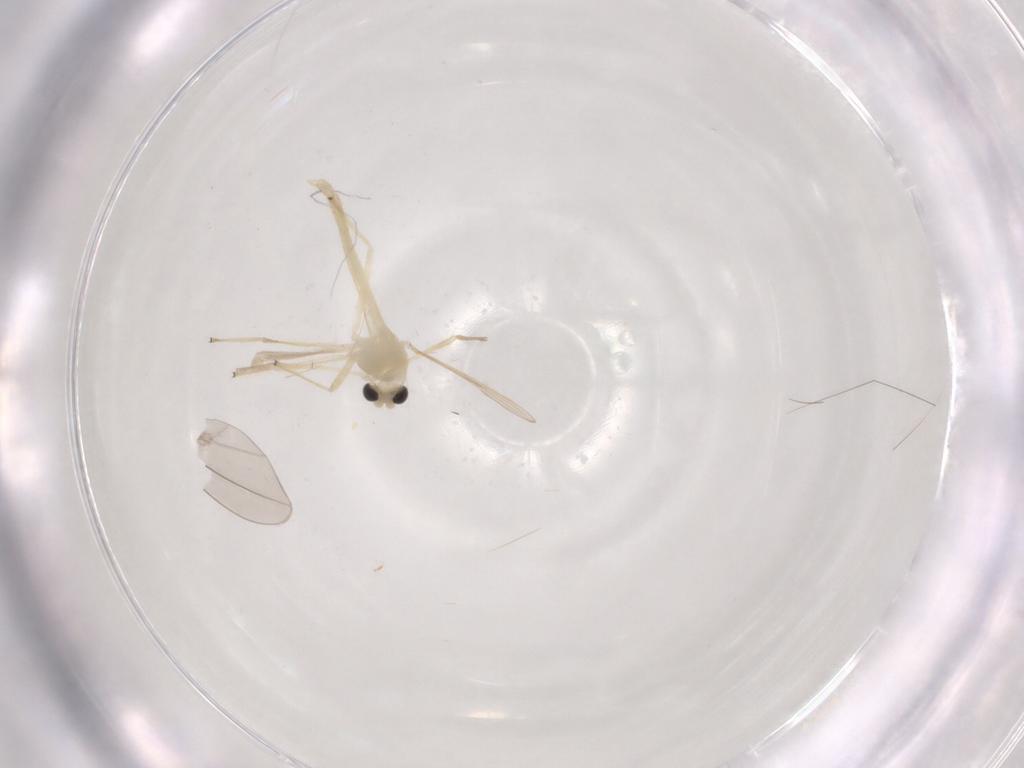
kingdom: Animalia
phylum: Arthropoda
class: Insecta
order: Diptera
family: Chironomidae
